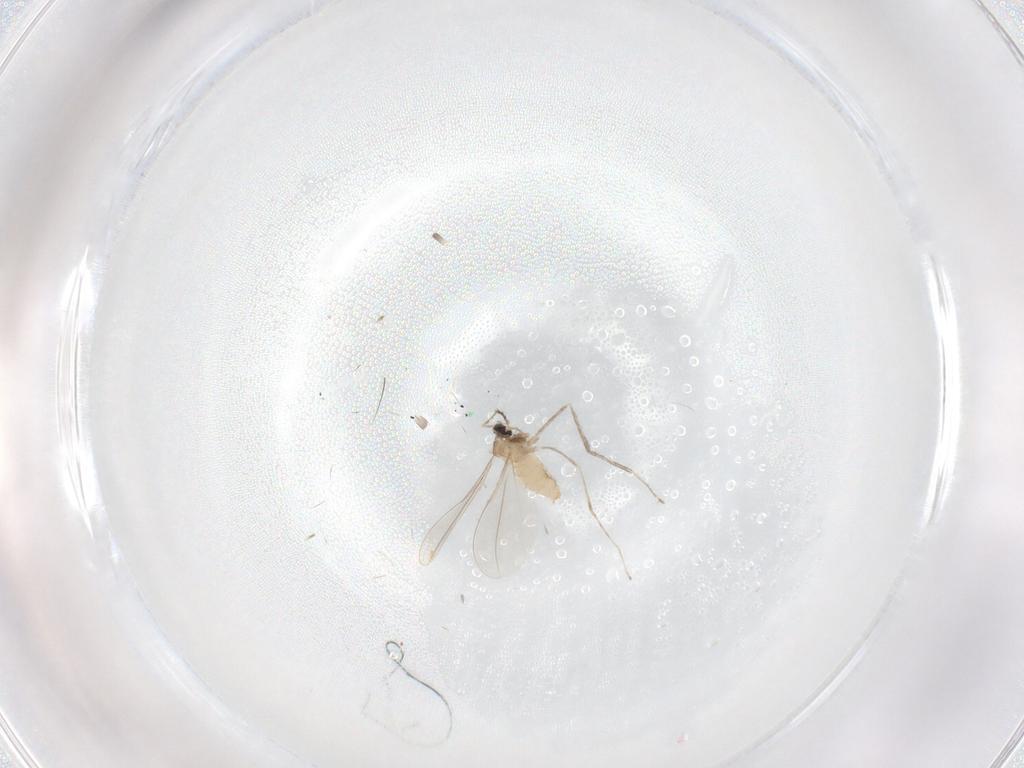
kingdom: Animalia
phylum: Arthropoda
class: Insecta
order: Diptera
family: Cecidomyiidae
